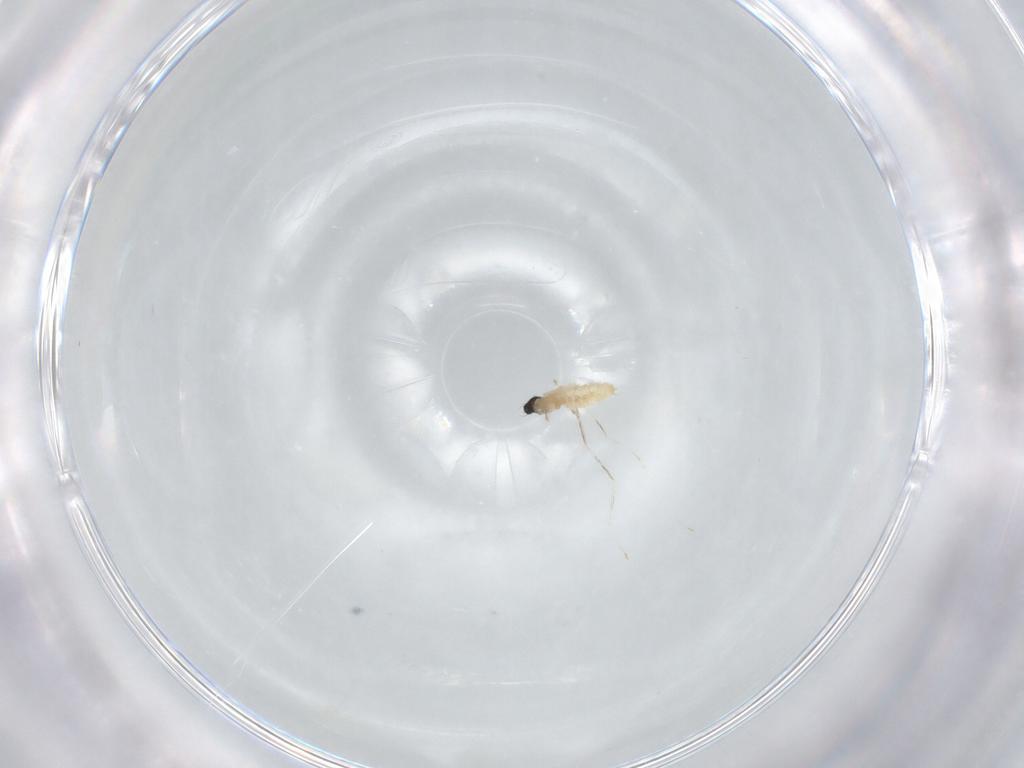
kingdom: Animalia
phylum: Arthropoda
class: Insecta
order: Diptera
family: Cecidomyiidae
